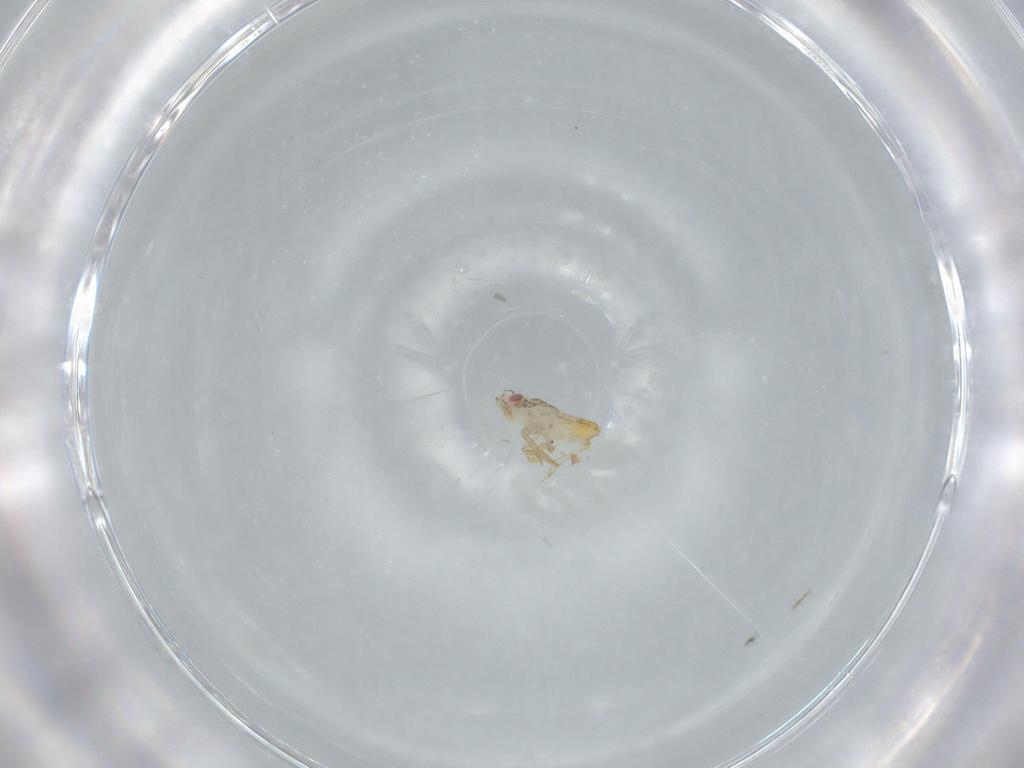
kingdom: Animalia
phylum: Arthropoda
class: Insecta
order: Hemiptera
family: Delphacidae
